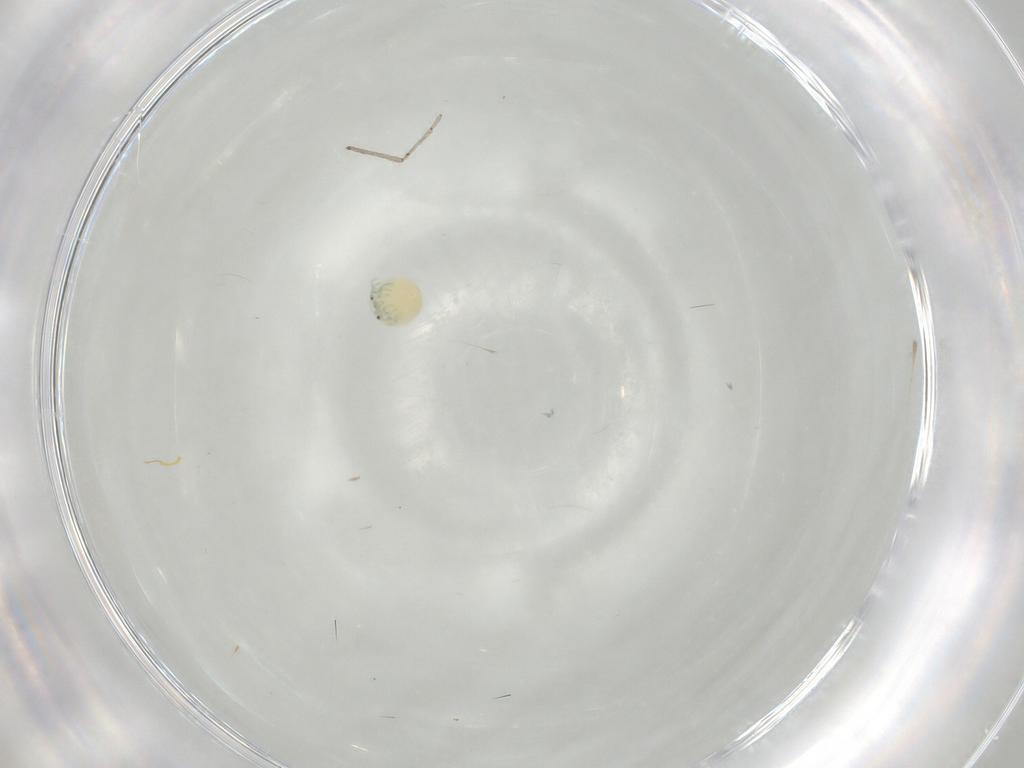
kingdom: Animalia
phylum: Arthropoda
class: Arachnida
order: Trombidiformes
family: Arrenuridae
